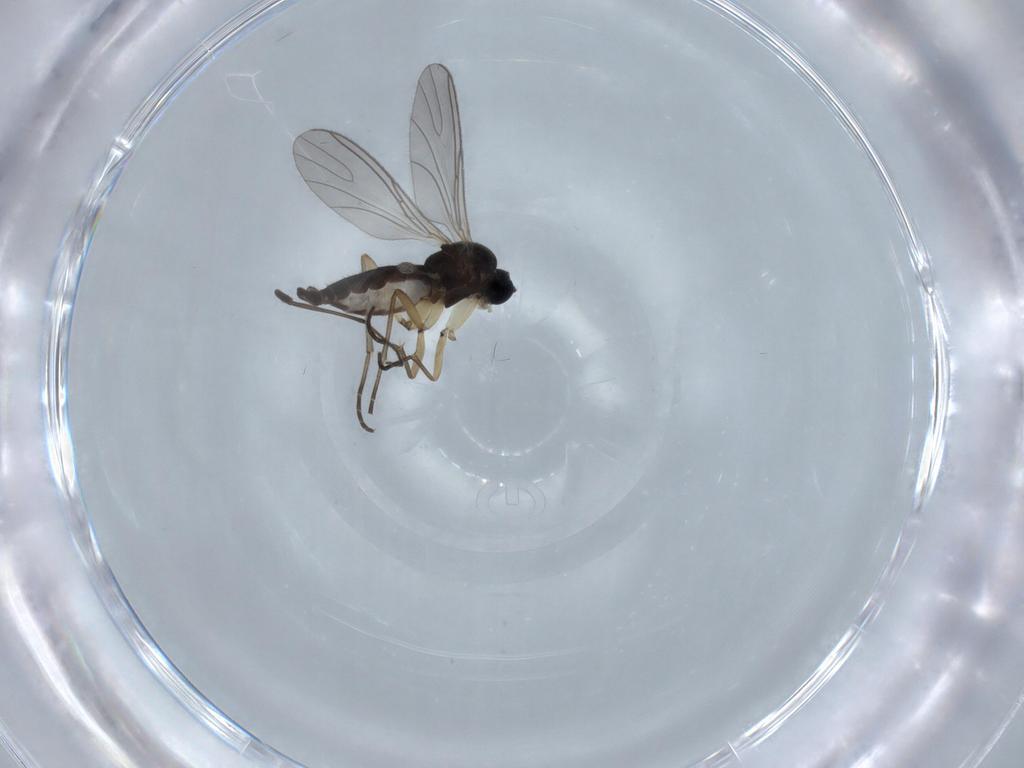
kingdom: Animalia
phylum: Arthropoda
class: Insecta
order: Diptera
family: Sciaridae
